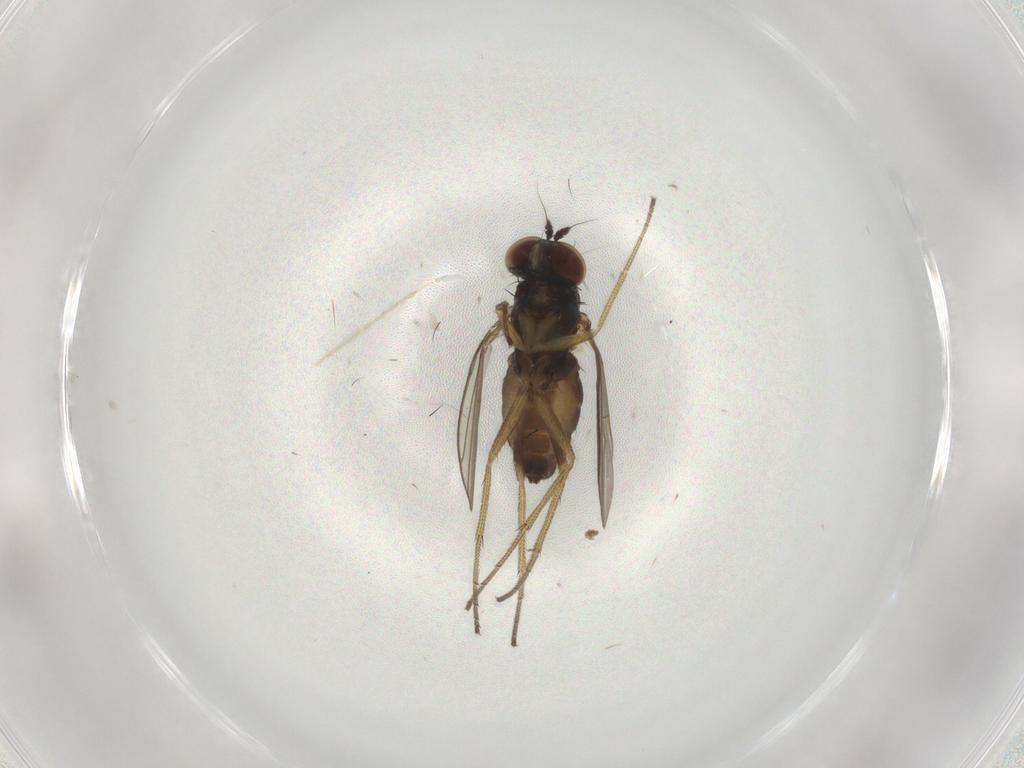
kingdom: Animalia
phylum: Arthropoda
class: Insecta
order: Diptera
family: Dolichopodidae
